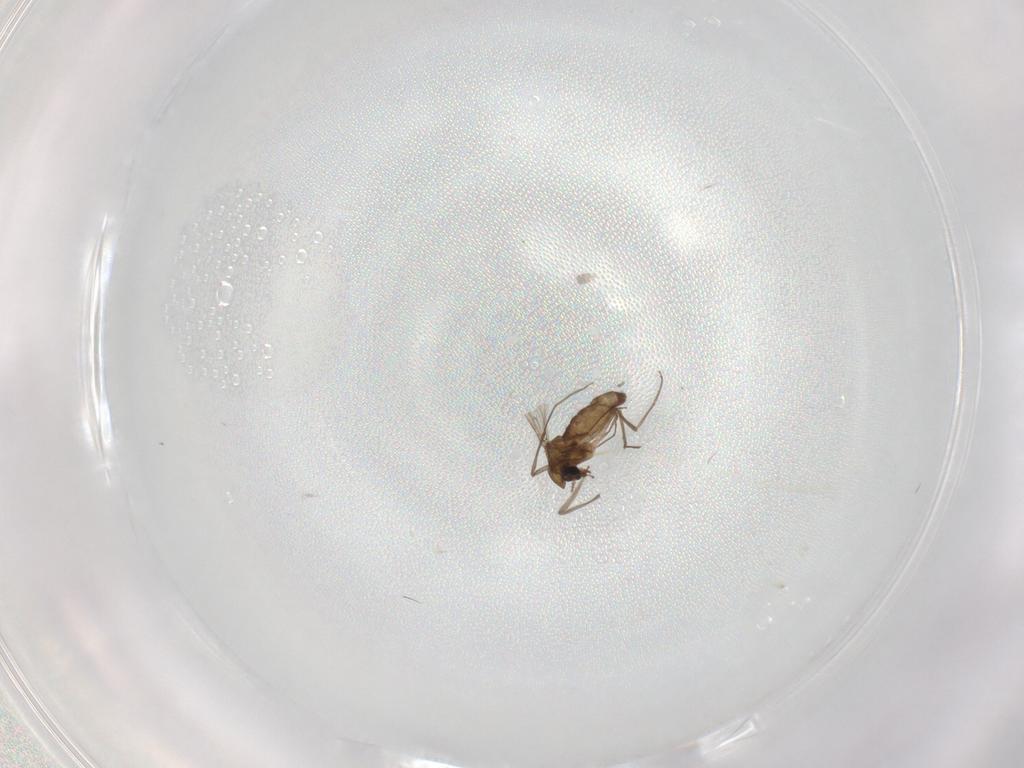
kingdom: Animalia
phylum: Arthropoda
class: Insecta
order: Diptera
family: Chironomidae
